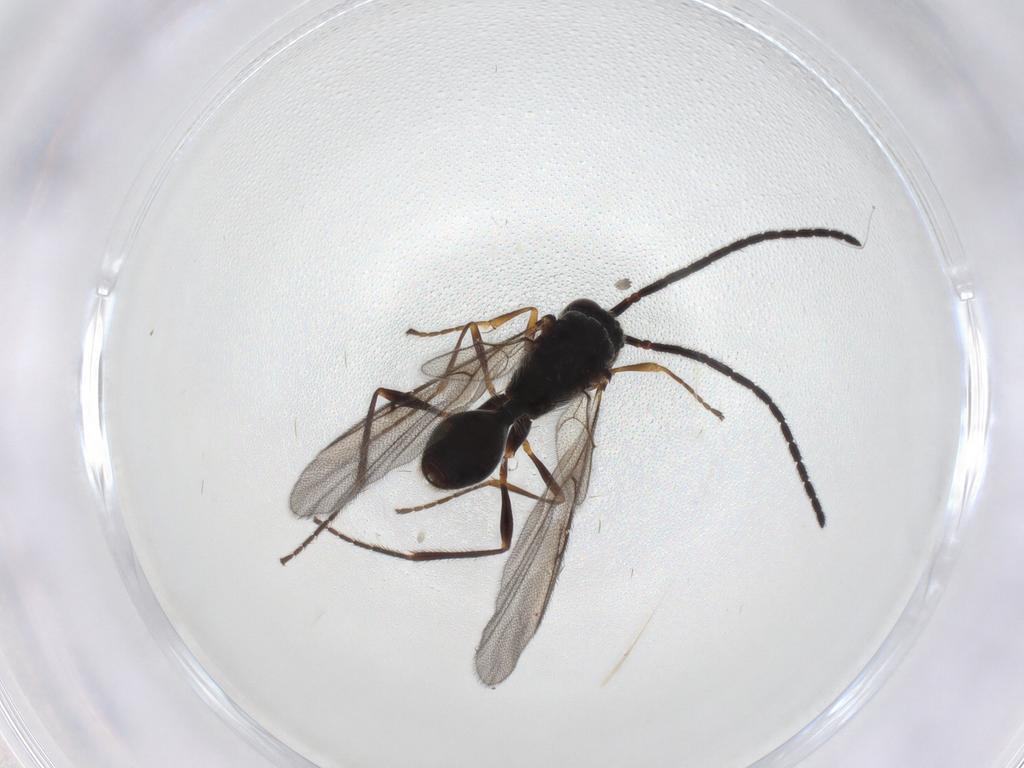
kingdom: Animalia
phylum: Arthropoda
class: Insecta
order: Hymenoptera
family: Diapriidae
